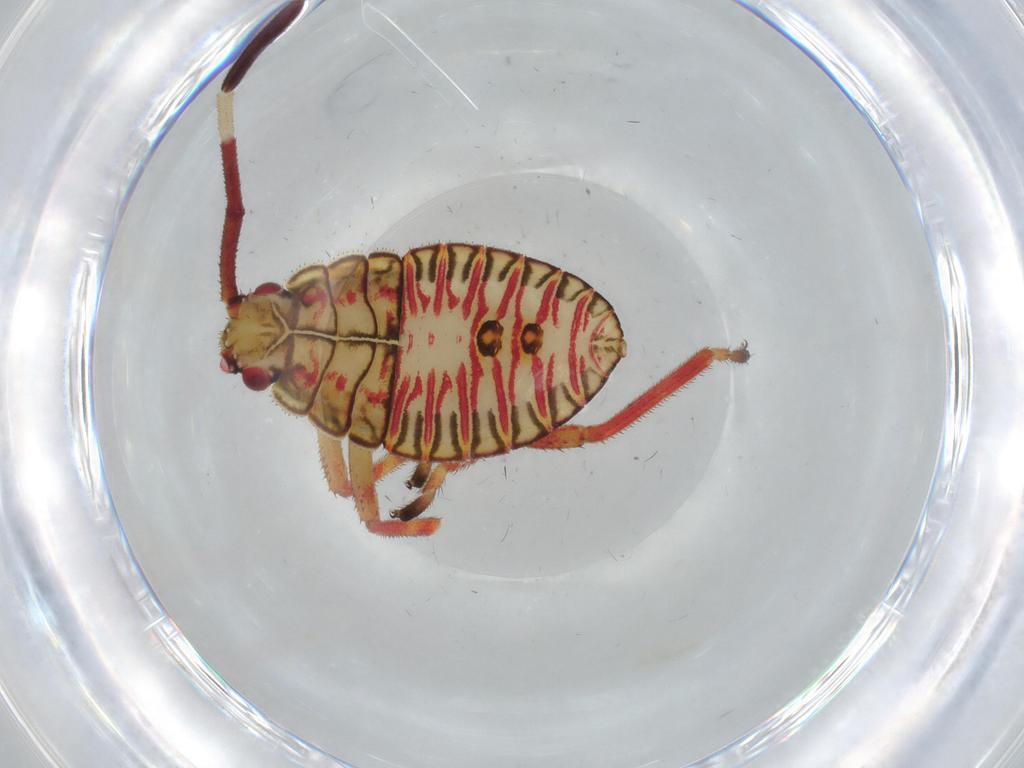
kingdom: Animalia
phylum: Arthropoda
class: Insecta
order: Hemiptera
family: Coreidae
